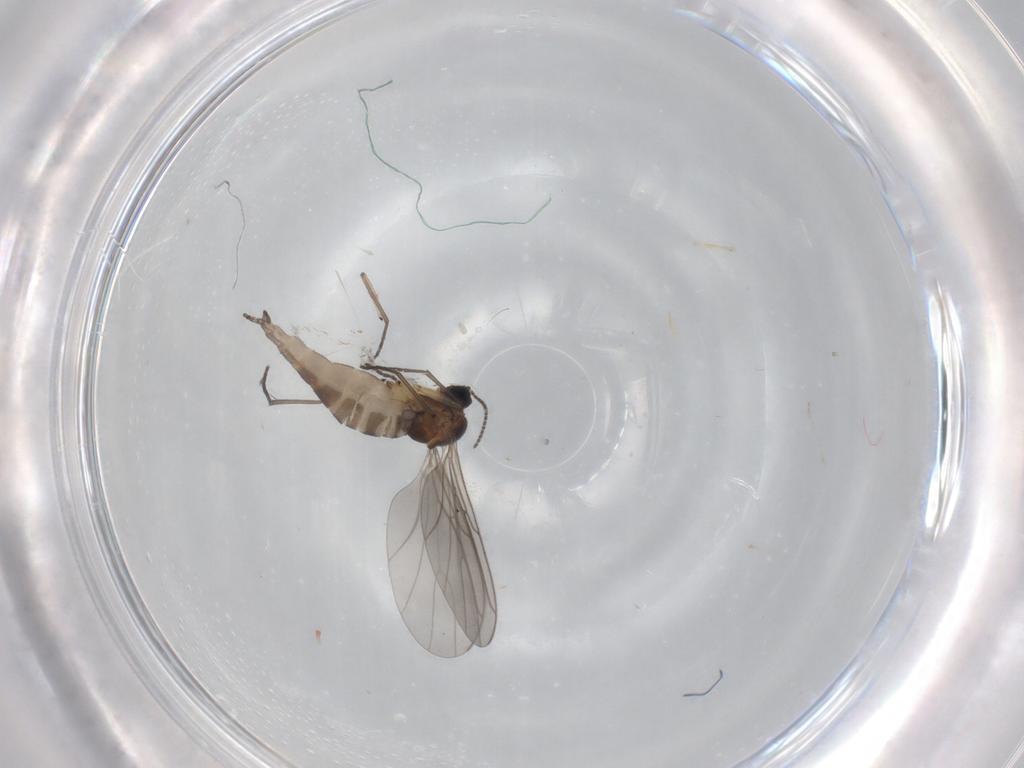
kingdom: Animalia
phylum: Arthropoda
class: Insecta
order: Diptera
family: Sciaridae
